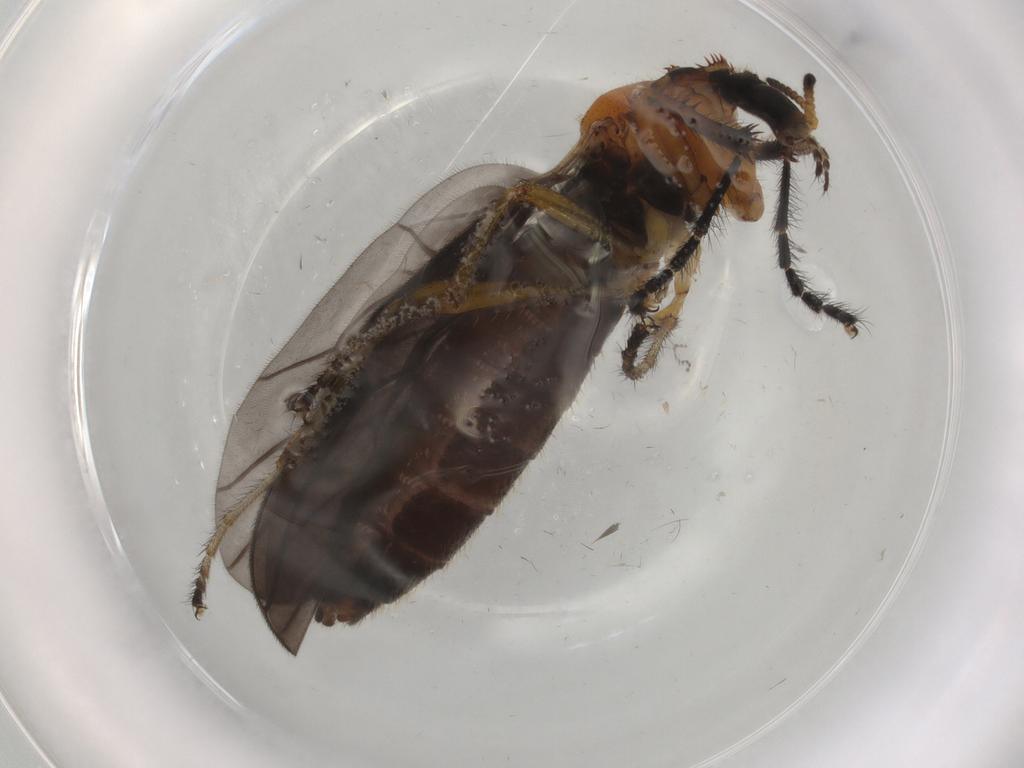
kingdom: Animalia
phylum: Arthropoda
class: Insecta
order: Diptera
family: Bibionidae
